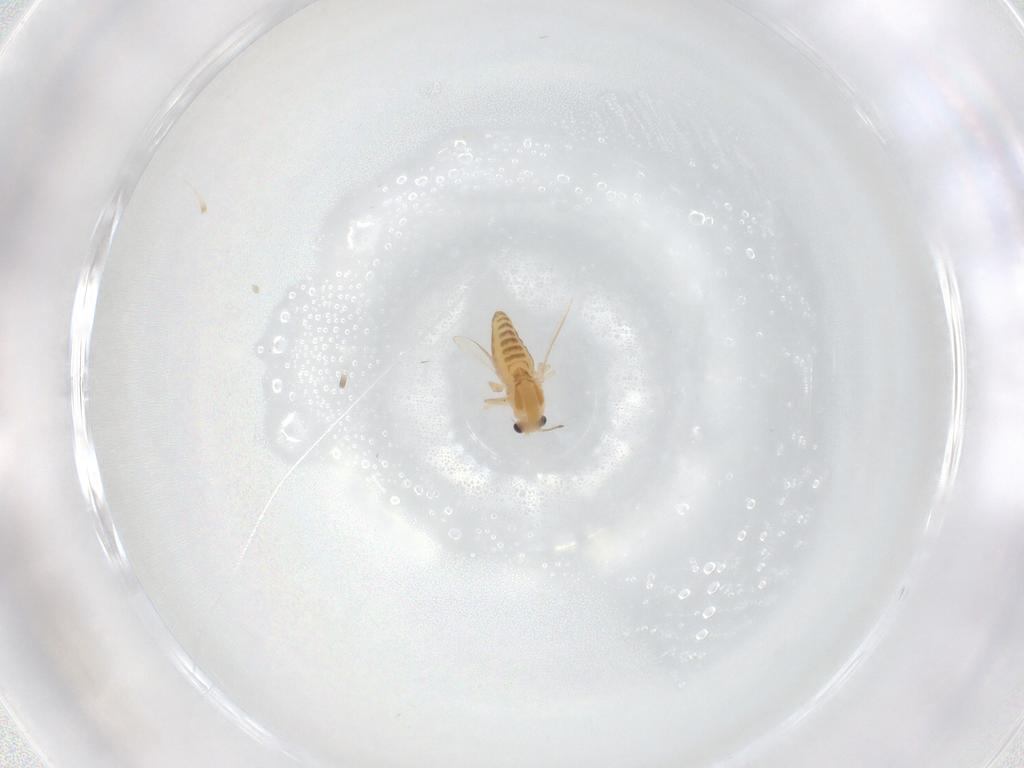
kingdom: Animalia
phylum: Arthropoda
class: Insecta
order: Diptera
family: Chironomidae
